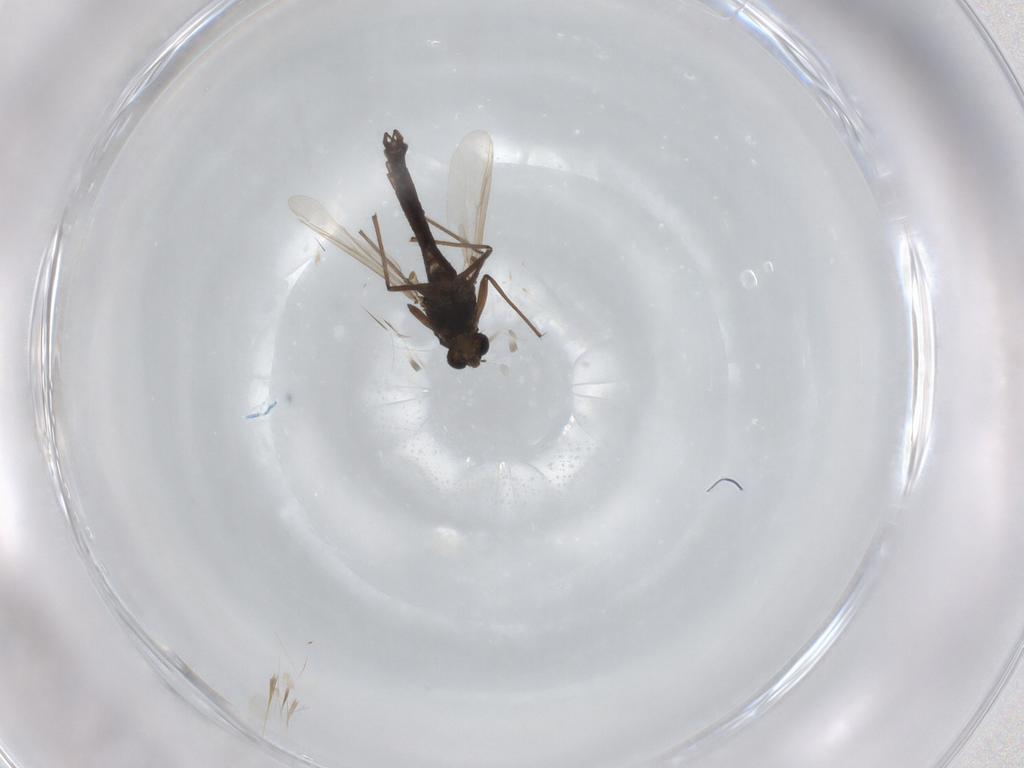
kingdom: Animalia
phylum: Arthropoda
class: Insecta
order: Diptera
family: Chironomidae
